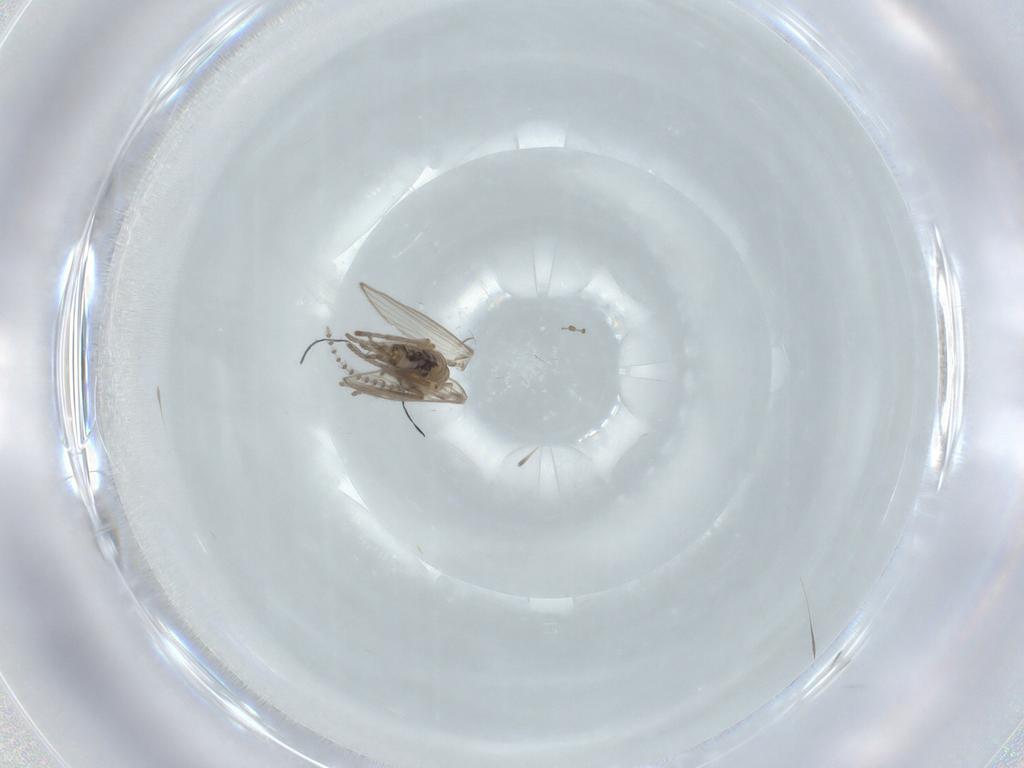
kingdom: Animalia
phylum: Arthropoda
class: Insecta
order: Diptera
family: Psychodidae
